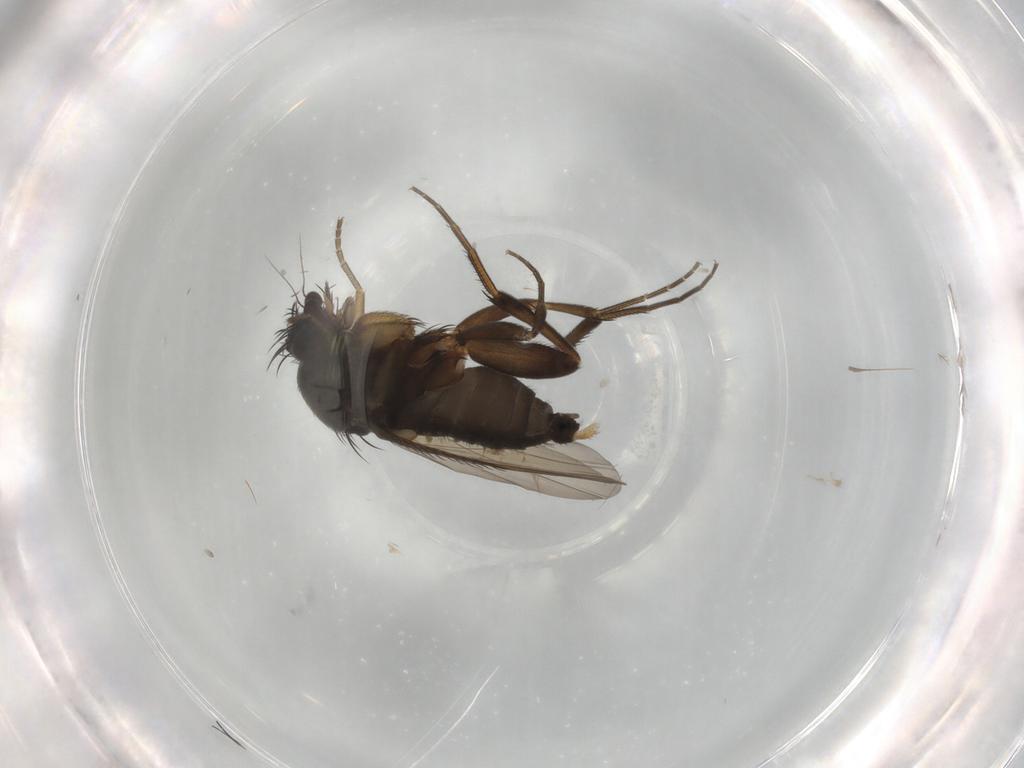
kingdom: Animalia
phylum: Arthropoda
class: Insecta
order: Diptera
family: Phoridae
